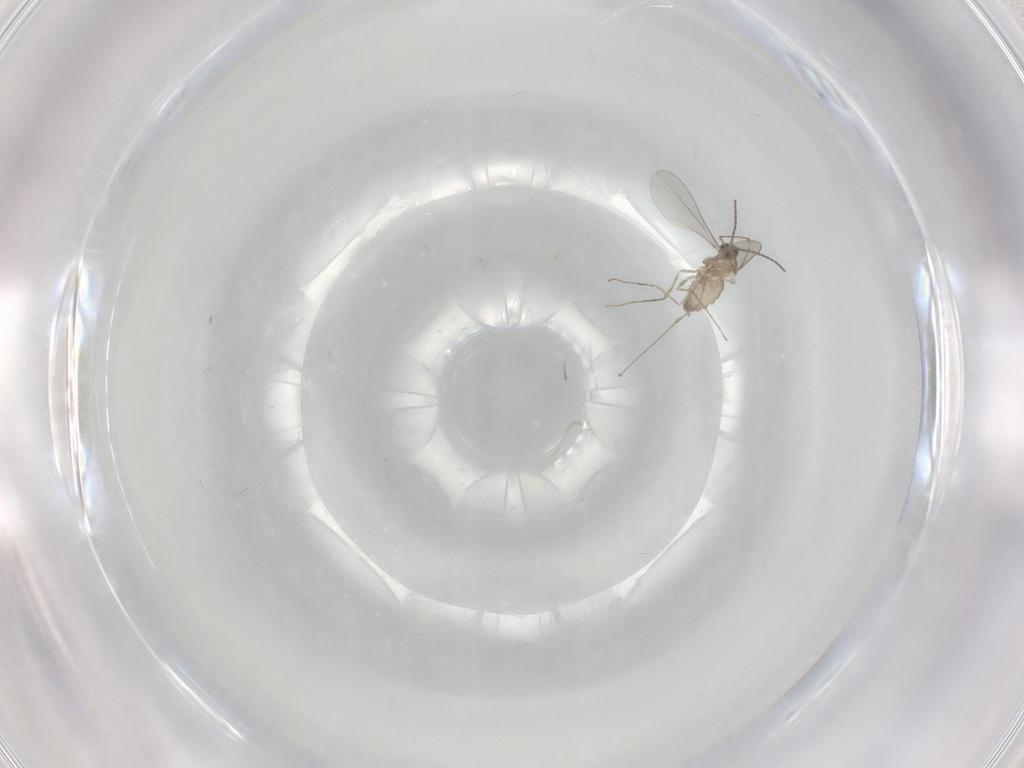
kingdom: Animalia
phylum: Arthropoda
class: Insecta
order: Diptera
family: Cecidomyiidae
